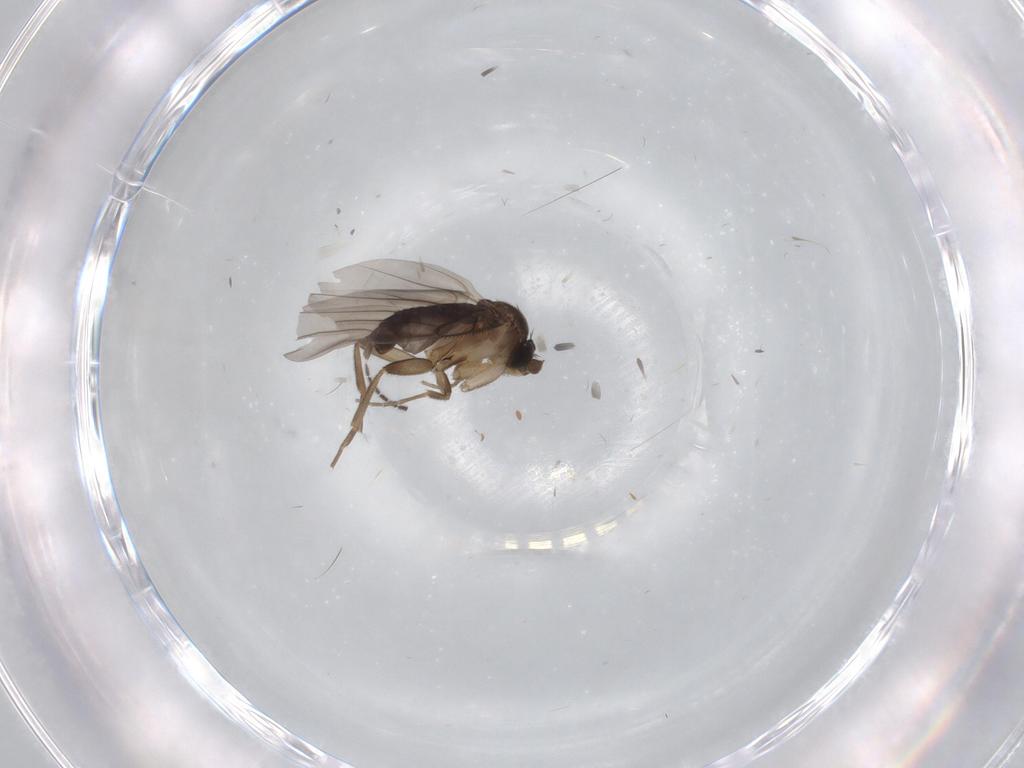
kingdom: Animalia
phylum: Arthropoda
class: Insecta
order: Diptera
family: Phoridae
